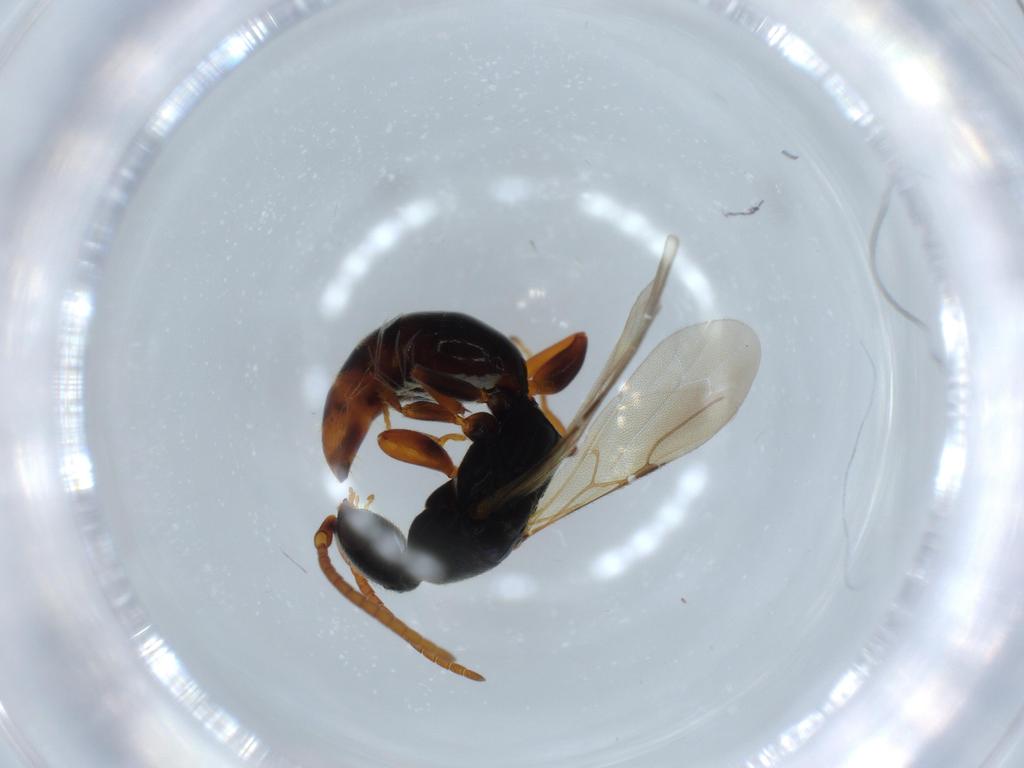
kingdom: Animalia
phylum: Arthropoda
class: Insecta
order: Hymenoptera
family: Bethylidae
